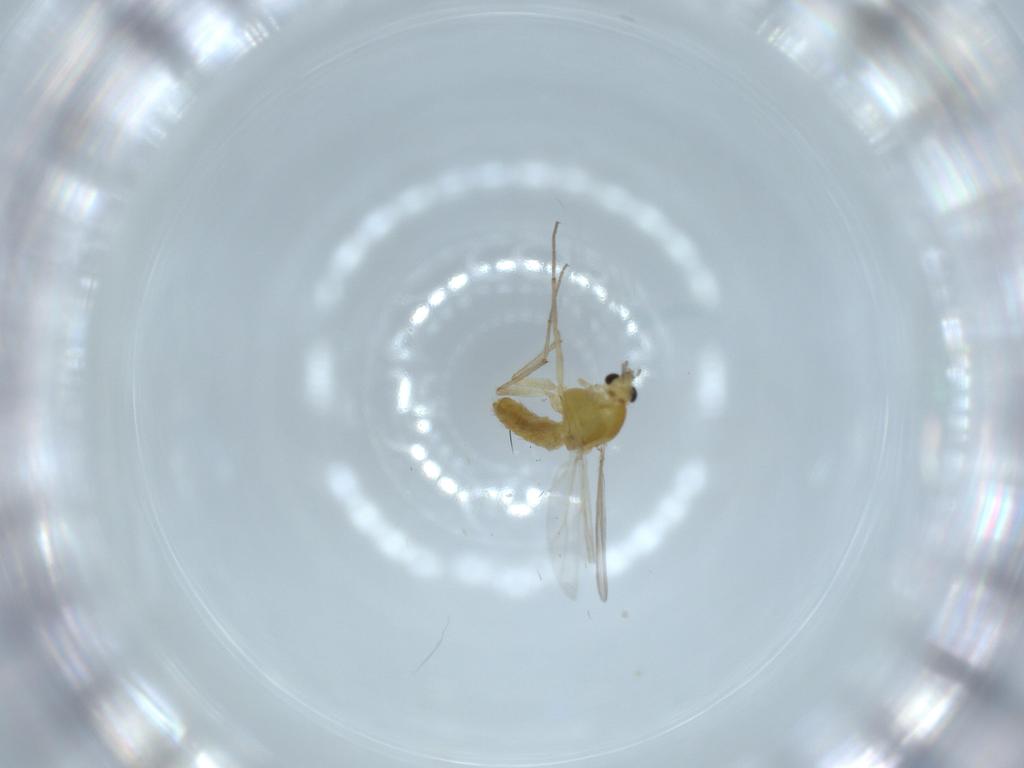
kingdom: Animalia
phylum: Arthropoda
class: Insecta
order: Diptera
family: Chironomidae
